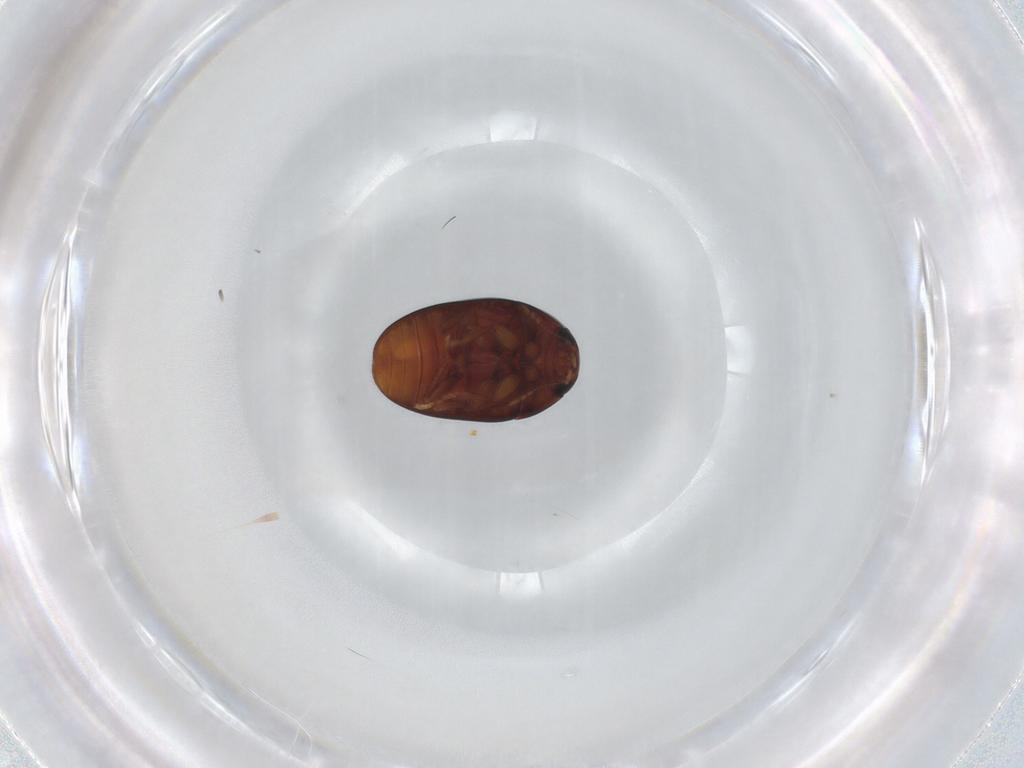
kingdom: Animalia
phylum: Arthropoda
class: Insecta
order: Coleoptera
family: Phalacridae
